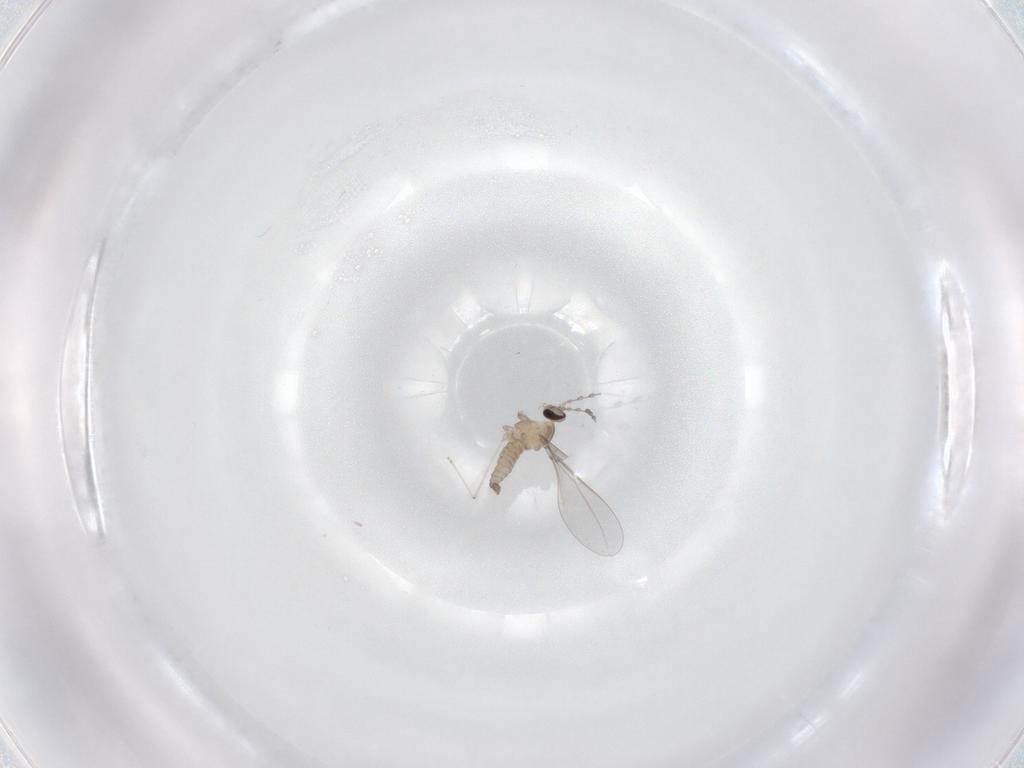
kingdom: Animalia
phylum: Arthropoda
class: Insecta
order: Diptera
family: Cecidomyiidae
